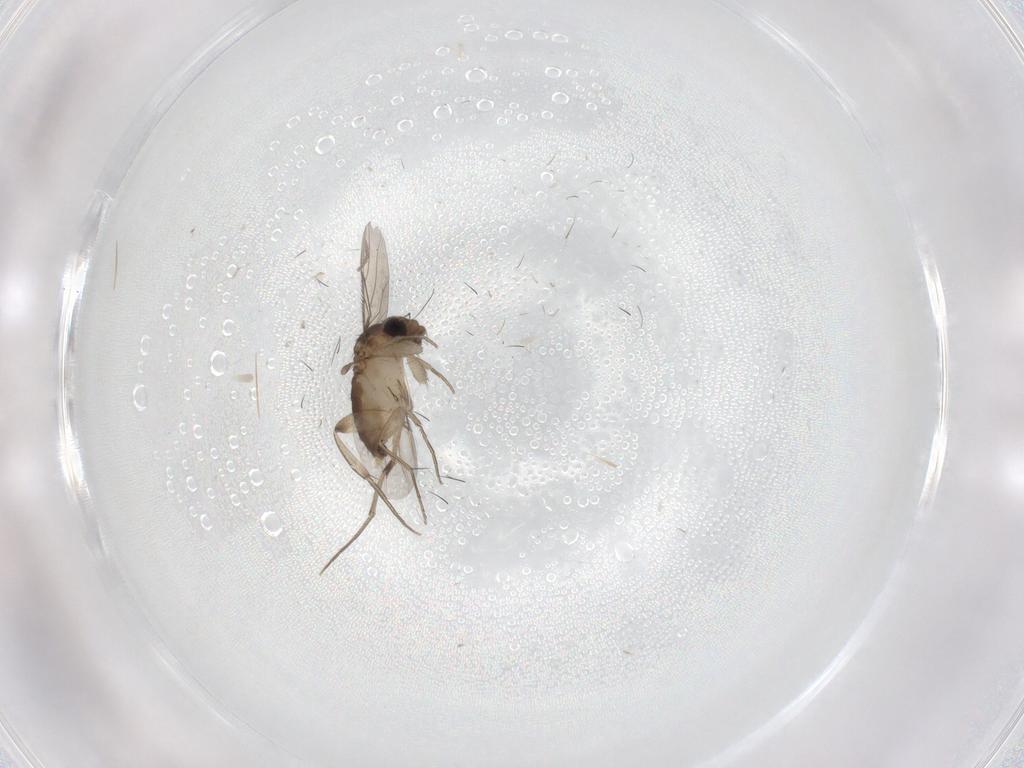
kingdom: Animalia
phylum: Arthropoda
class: Insecta
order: Diptera
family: Phoridae
